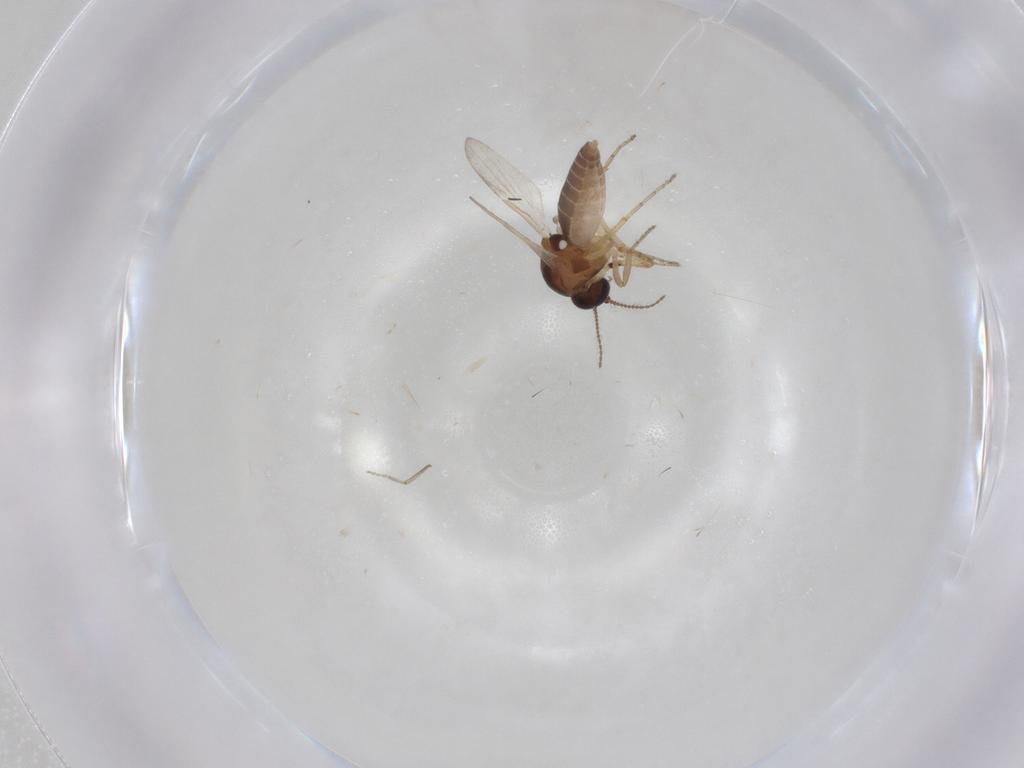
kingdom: Animalia
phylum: Arthropoda
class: Insecta
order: Diptera
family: Ceratopogonidae
